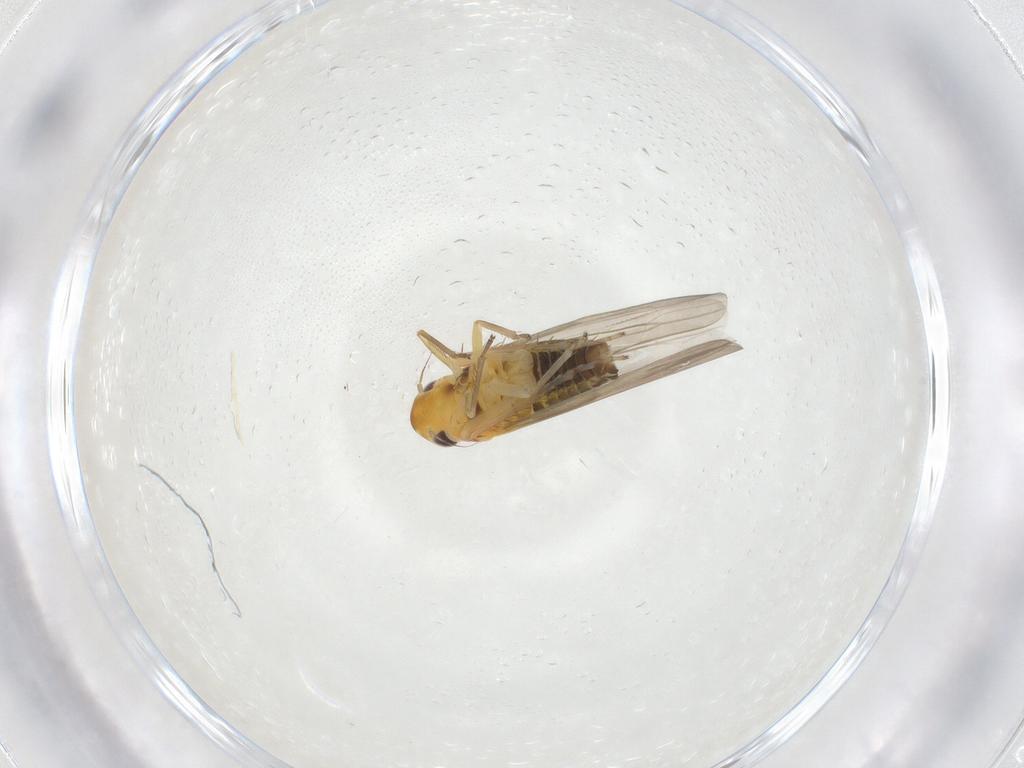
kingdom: Animalia
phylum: Arthropoda
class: Insecta
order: Hemiptera
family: Cicadellidae
